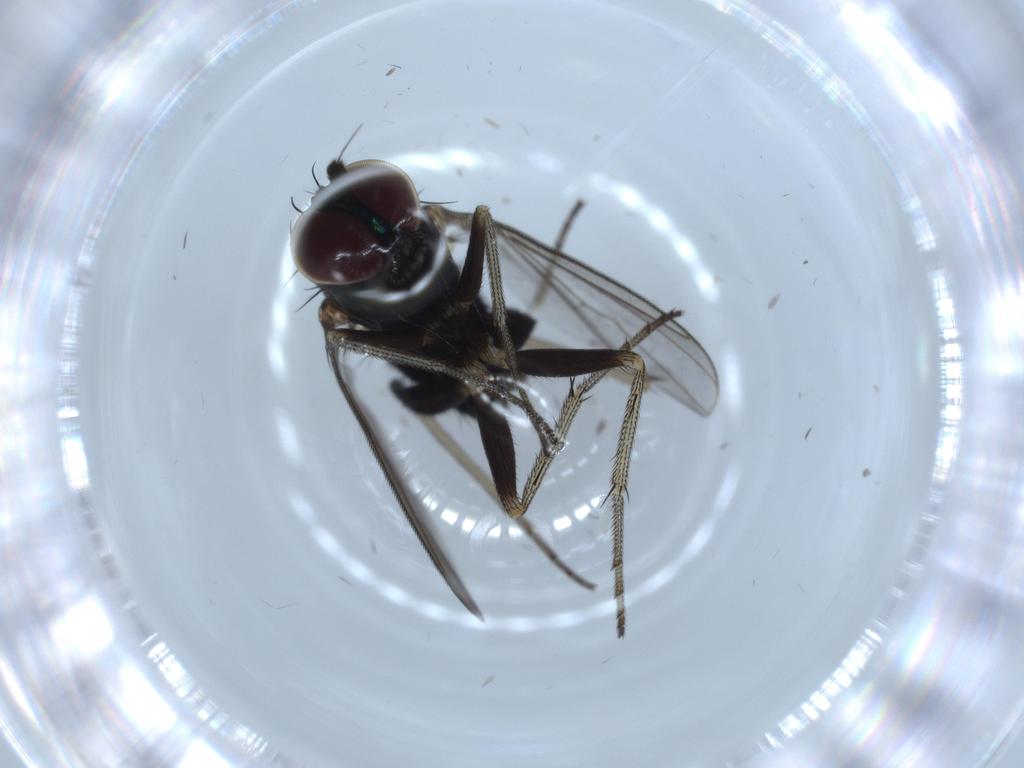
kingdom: Animalia
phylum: Arthropoda
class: Insecta
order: Diptera
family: Dolichopodidae
